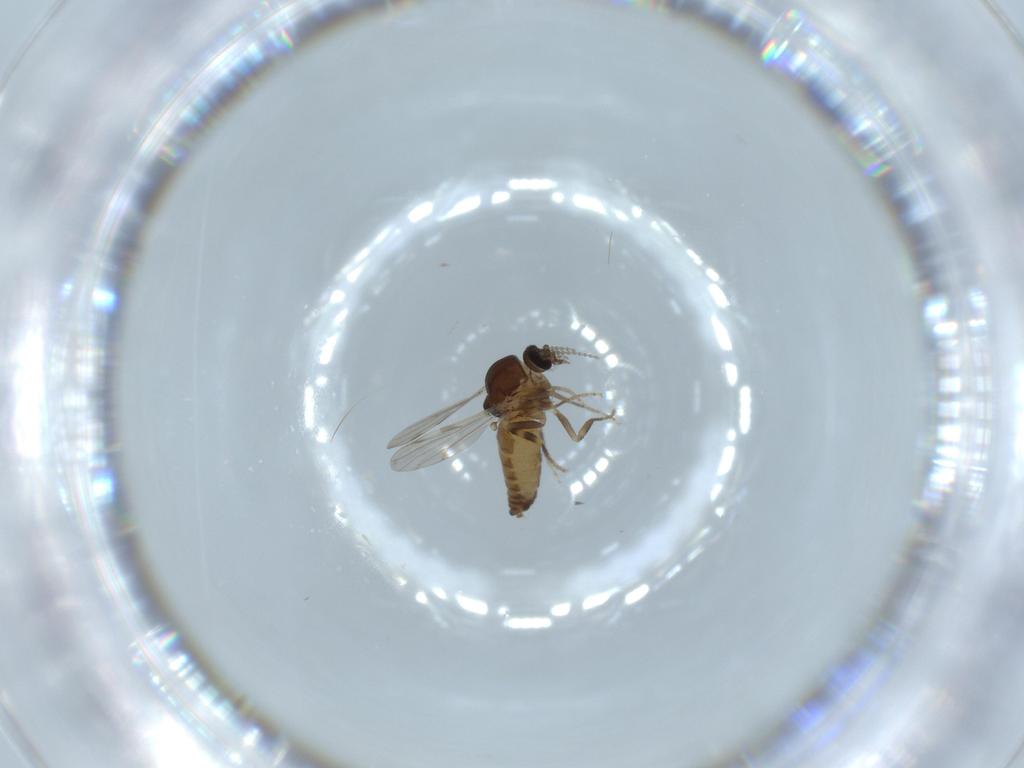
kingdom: Animalia
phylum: Arthropoda
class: Insecta
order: Diptera
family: Ceratopogonidae
